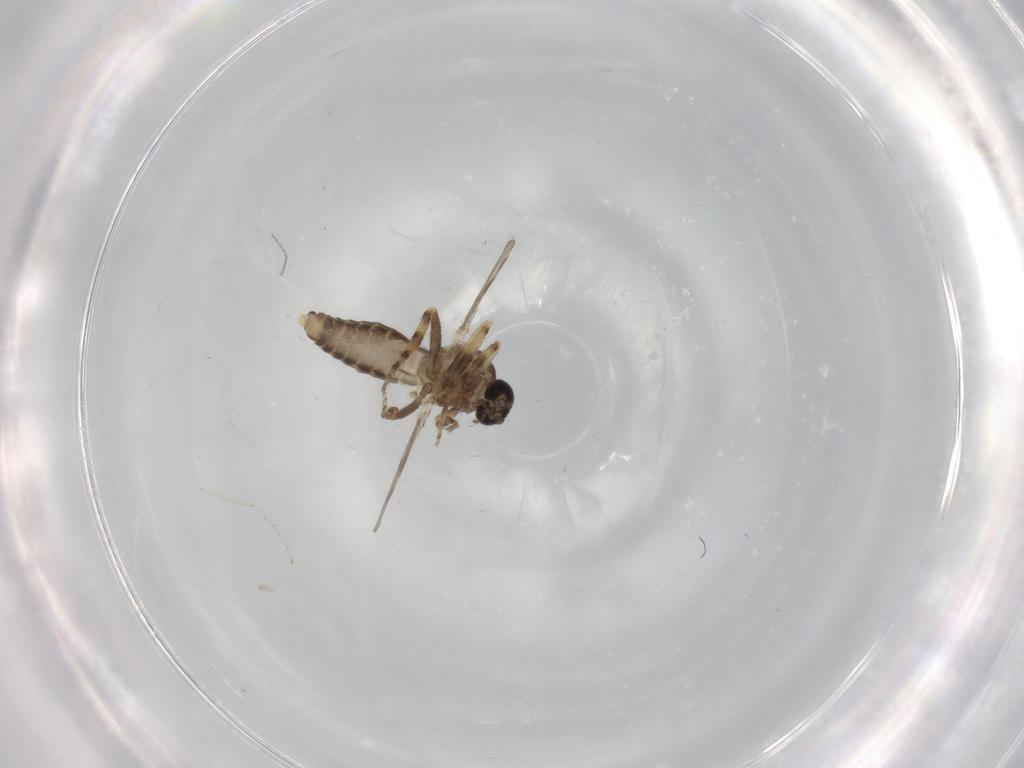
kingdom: Animalia
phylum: Arthropoda
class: Insecta
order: Diptera
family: Ceratopogonidae
